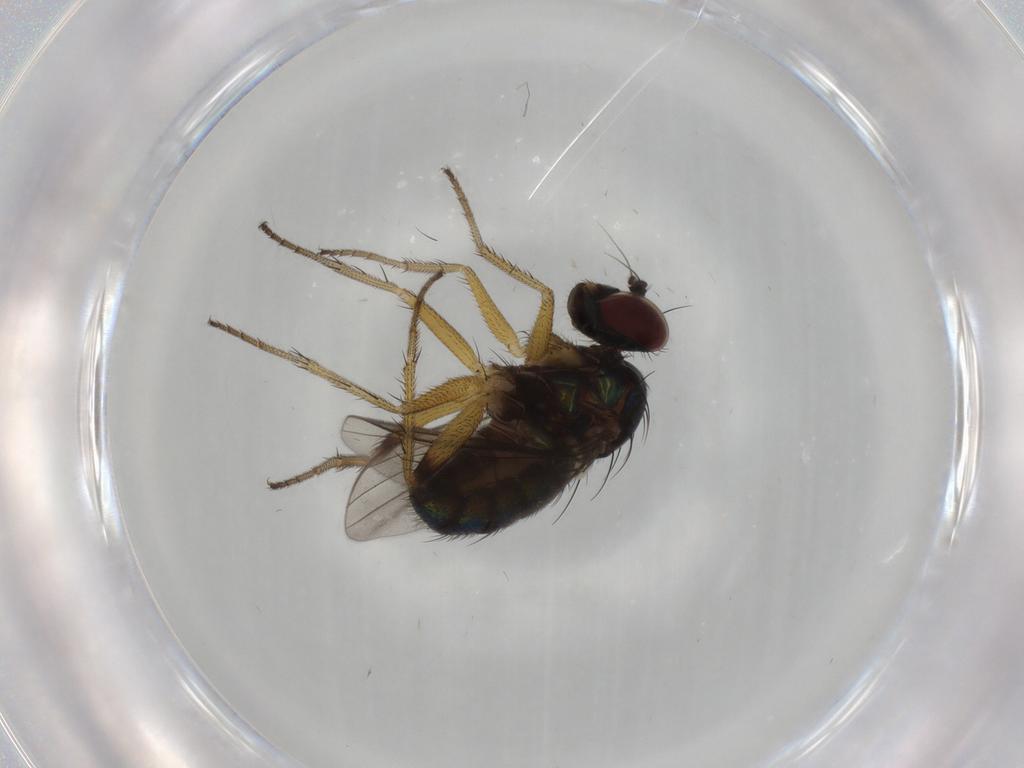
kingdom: Animalia
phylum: Arthropoda
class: Insecta
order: Diptera
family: Dolichopodidae
